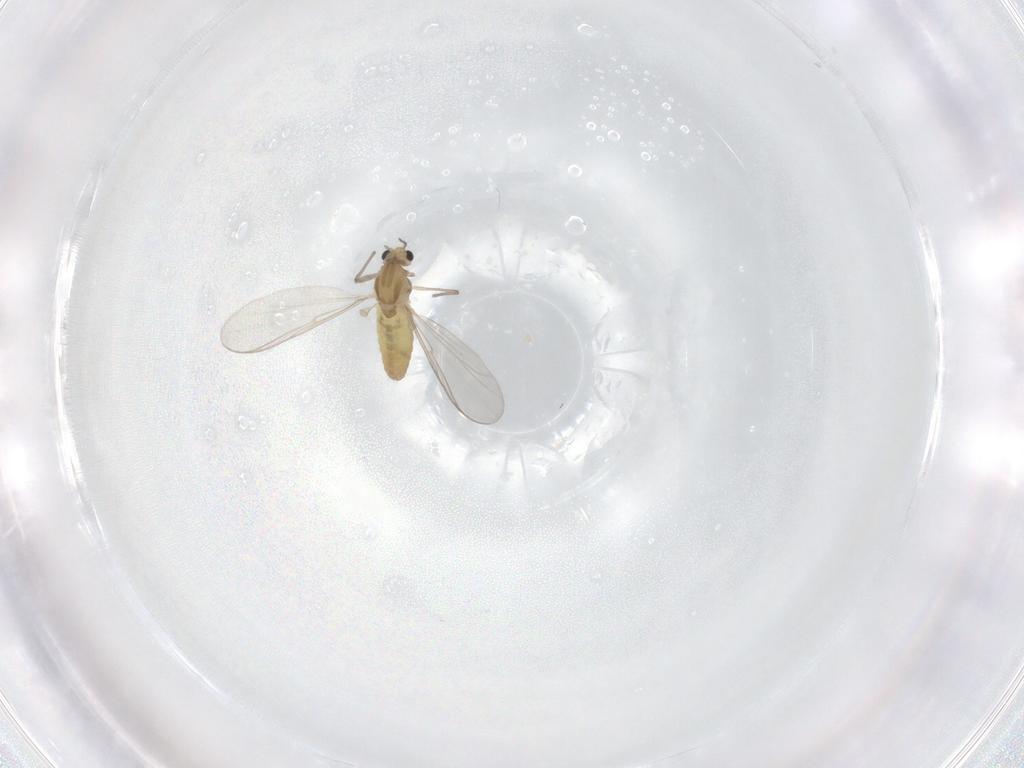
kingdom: Animalia
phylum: Arthropoda
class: Insecta
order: Diptera
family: Chironomidae
